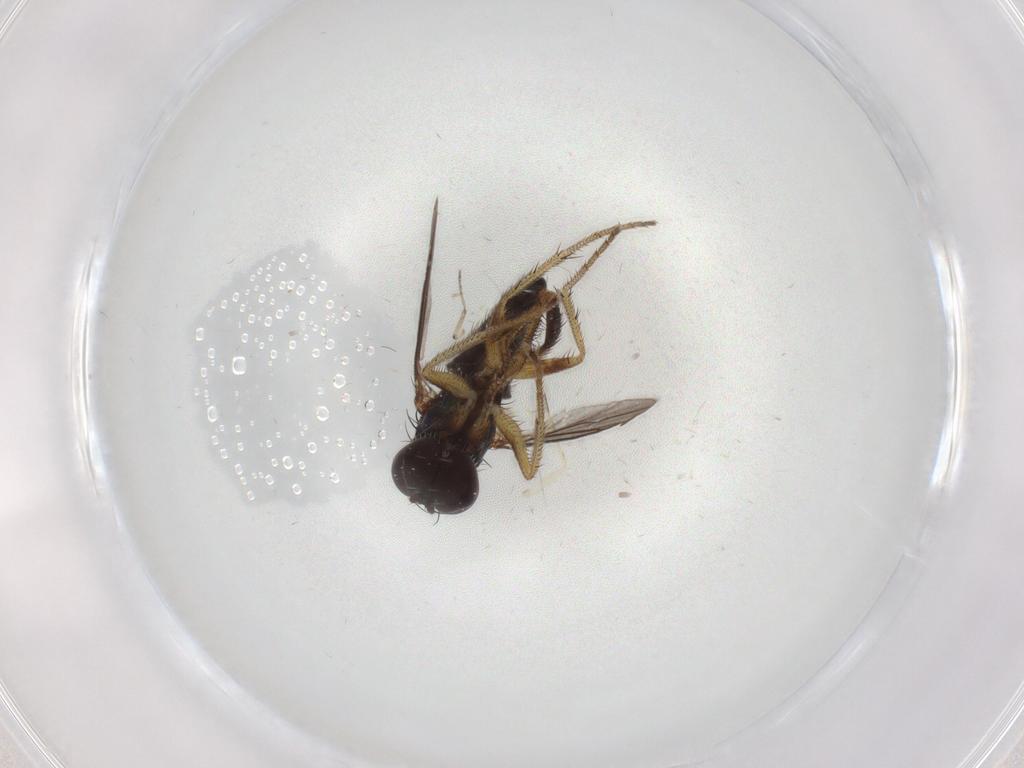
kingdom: Animalia
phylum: Arthropoda
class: Insecta
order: Diptera
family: Dolichopodidae
